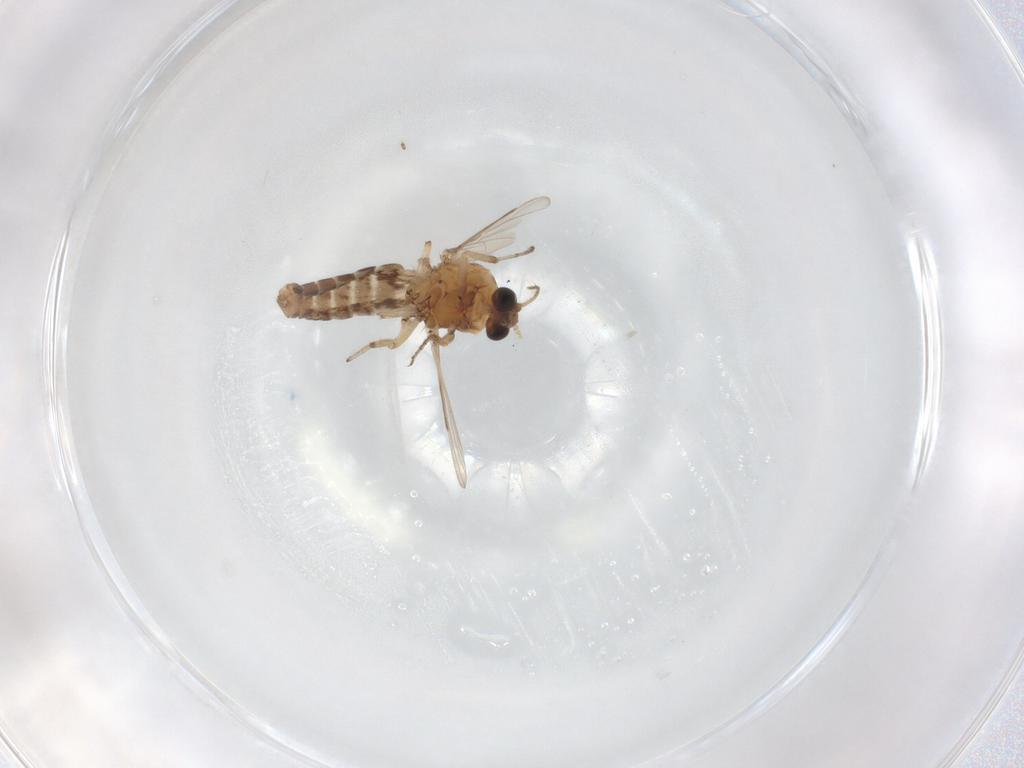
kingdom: Animalia
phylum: Arthropoda
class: Insecta
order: Diptera
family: Ceratopogonidae
